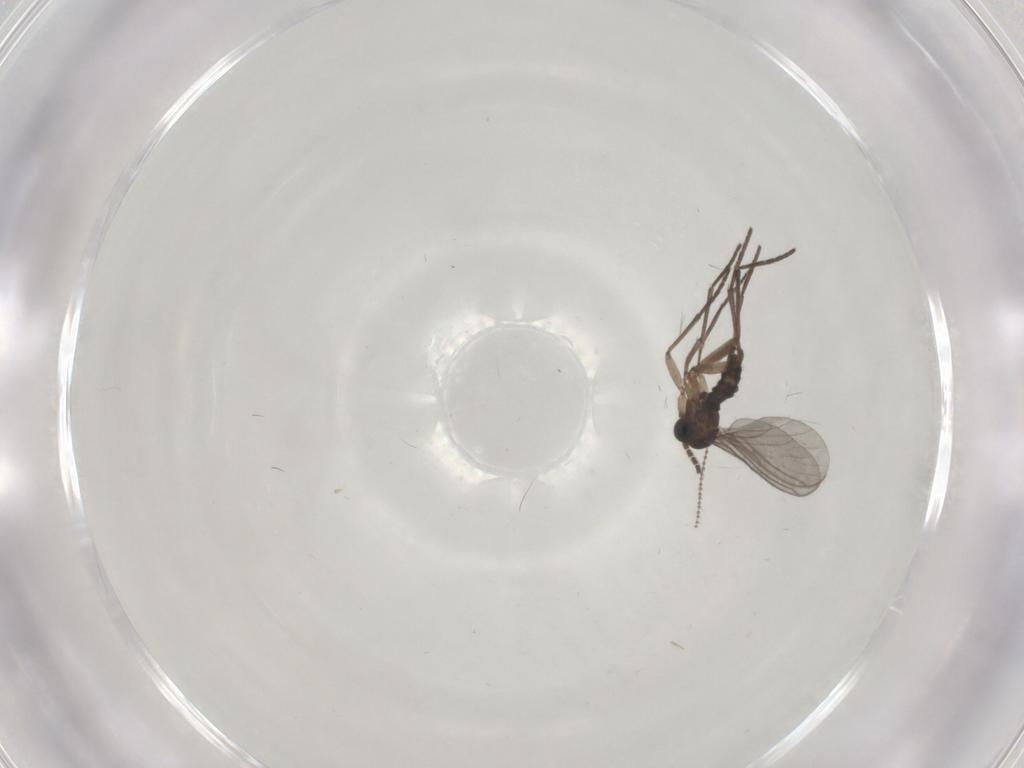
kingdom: Animalia
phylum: Arthropoda
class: Insecta
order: Diptera
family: Sciaridae
